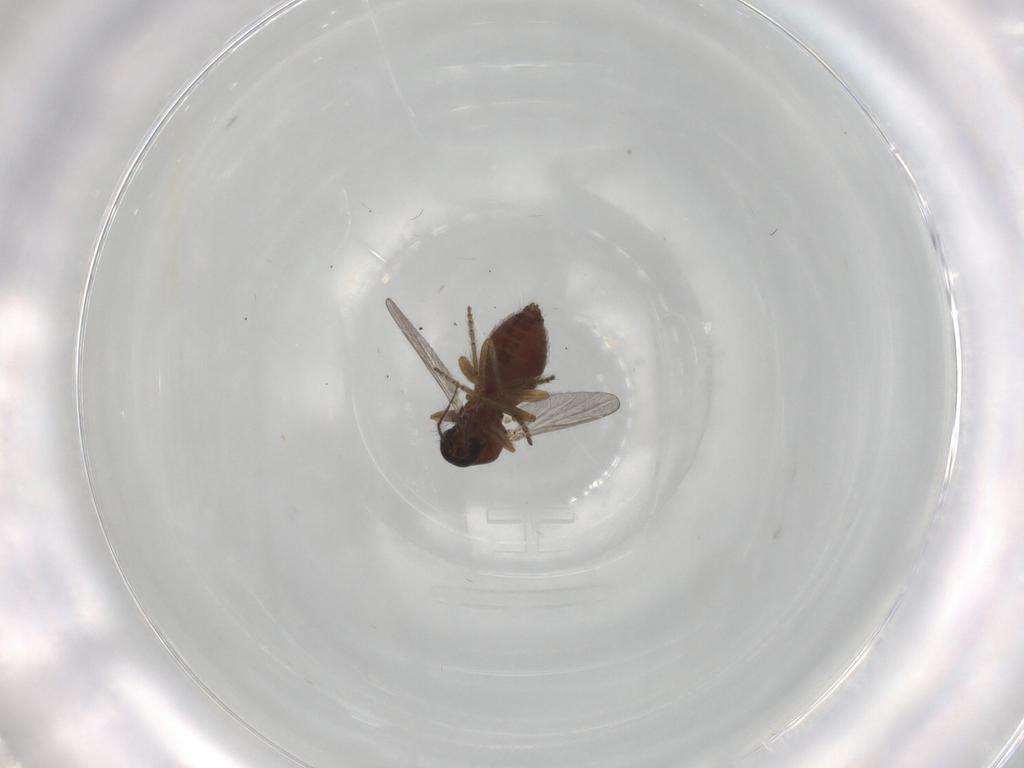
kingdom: Animalia
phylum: Arthropoda
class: Insecta
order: Diptera
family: Ceratopogonidae
